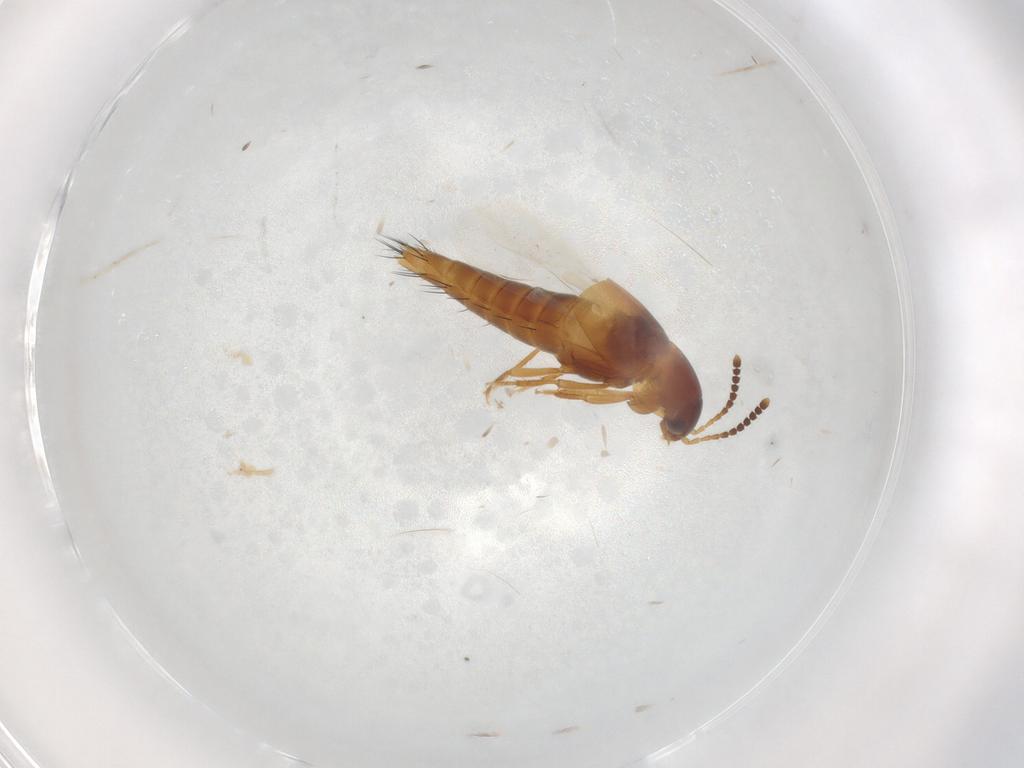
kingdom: Animalia
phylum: Arthropoda
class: Insecta
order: Coleoptera
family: Staphylinidae
